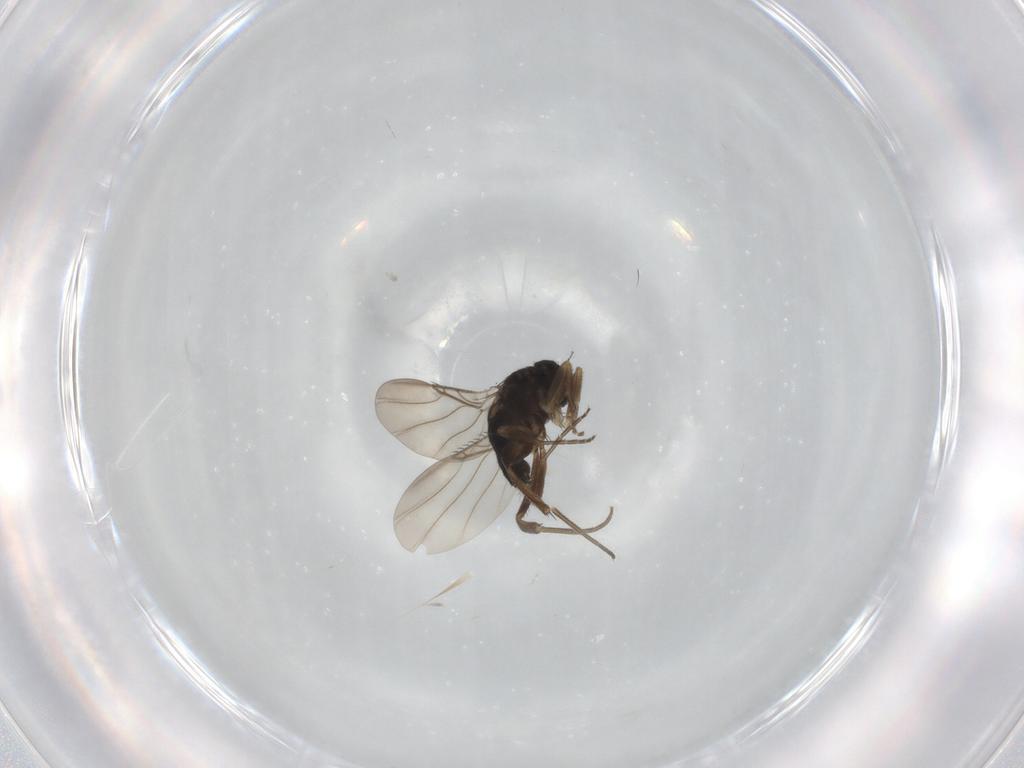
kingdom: Animalia
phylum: Arthropoda
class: Insecta
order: Diptera
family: Phoridae
